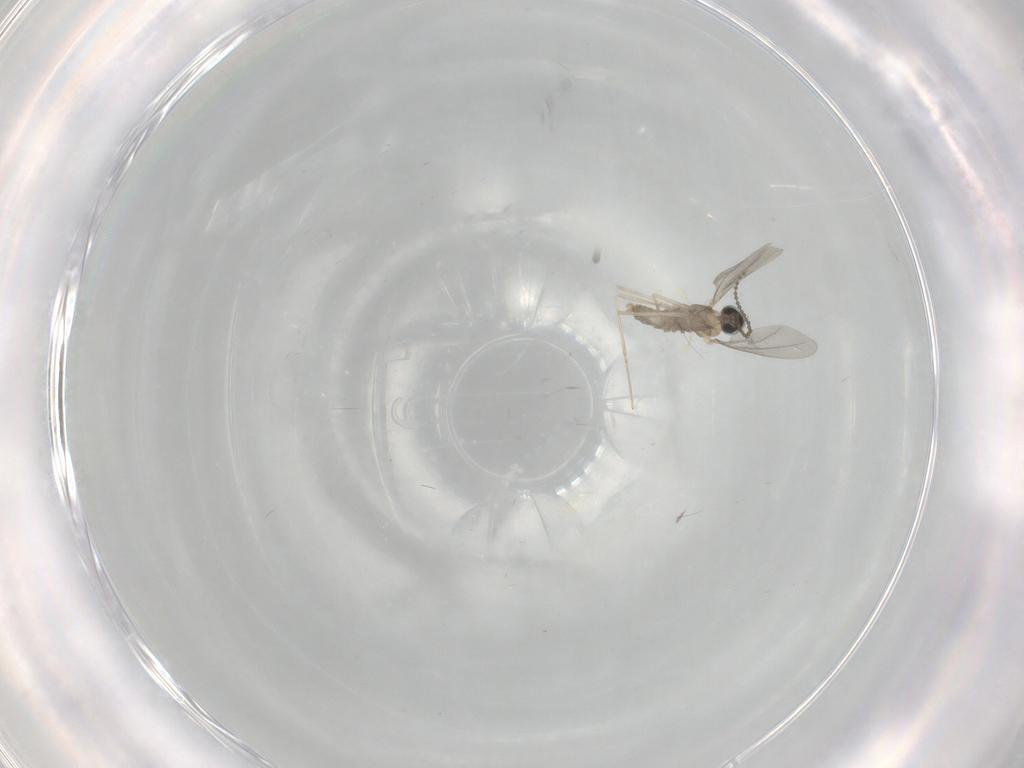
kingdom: Animalia
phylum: Arthropoda
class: Insecta
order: Diptera
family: Cecidomyiidae
